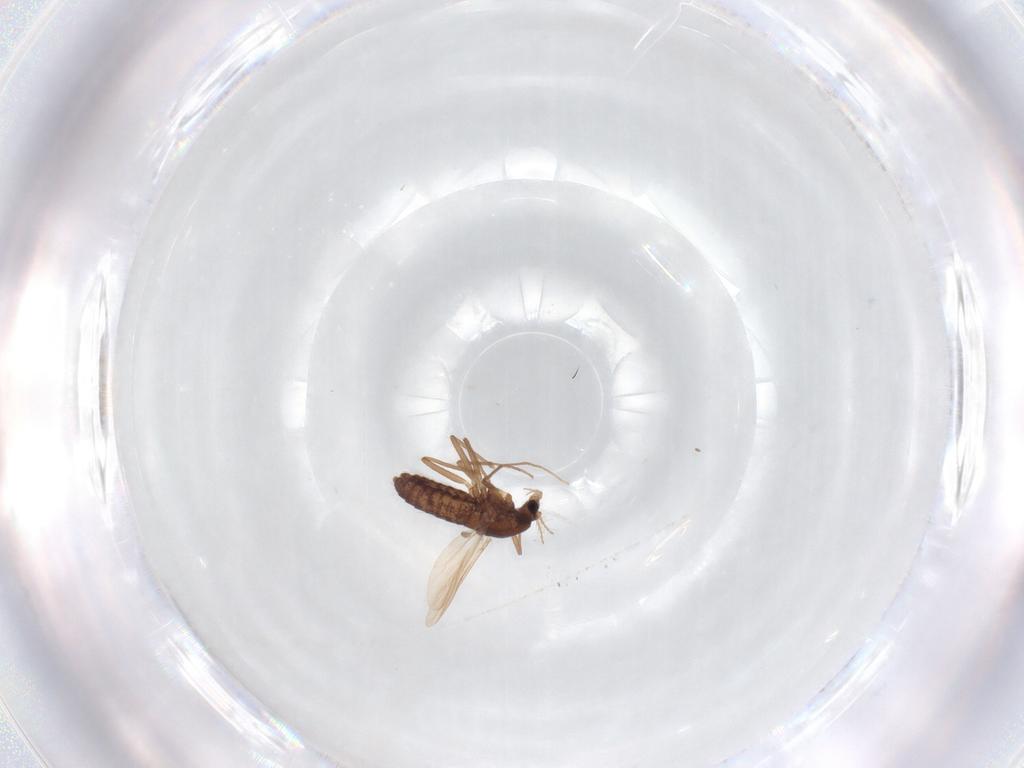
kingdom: Animalia
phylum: Arthropoda
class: Insecta
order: Diptera
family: Chironomidae
